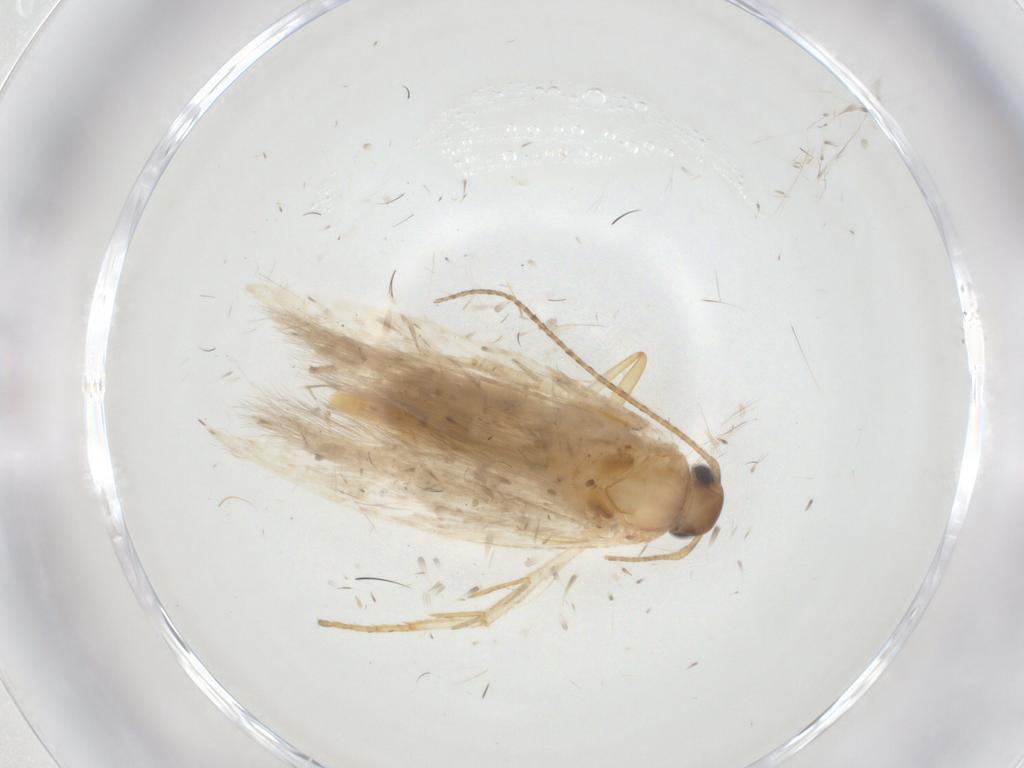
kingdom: Animalia
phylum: Arthropoda
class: Insecta
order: Lepidoptera
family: Gelechiidae
